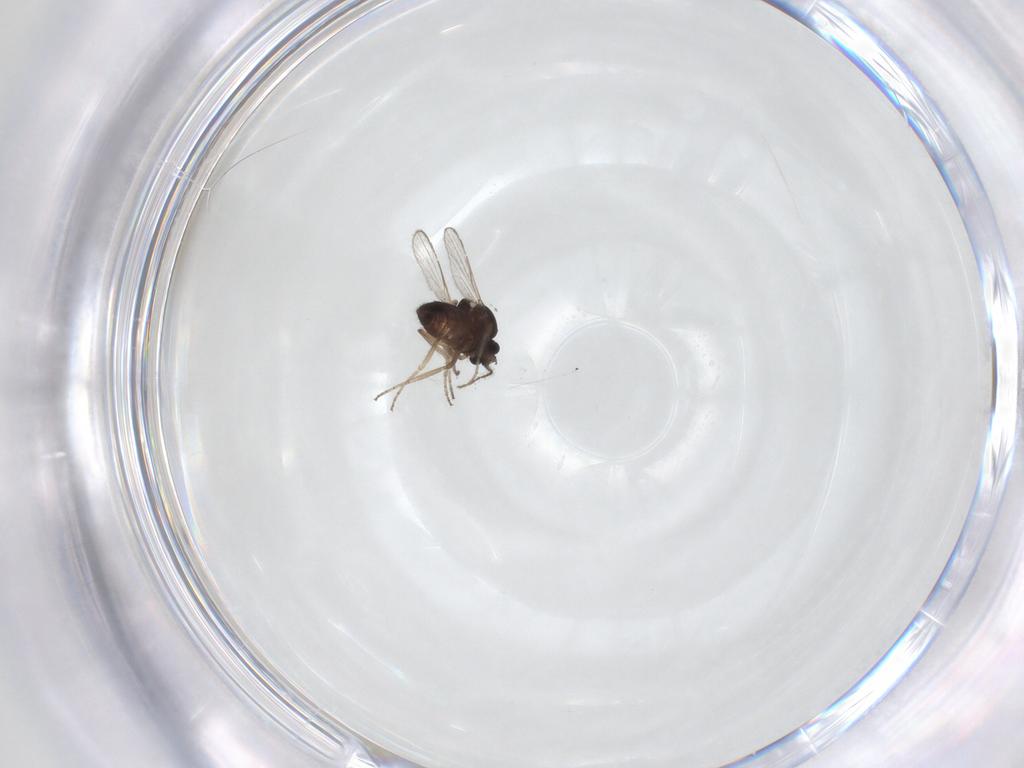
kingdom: Animalia
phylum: Arthropoda
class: Insecta
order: Diptera
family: Ceratopogonidae
